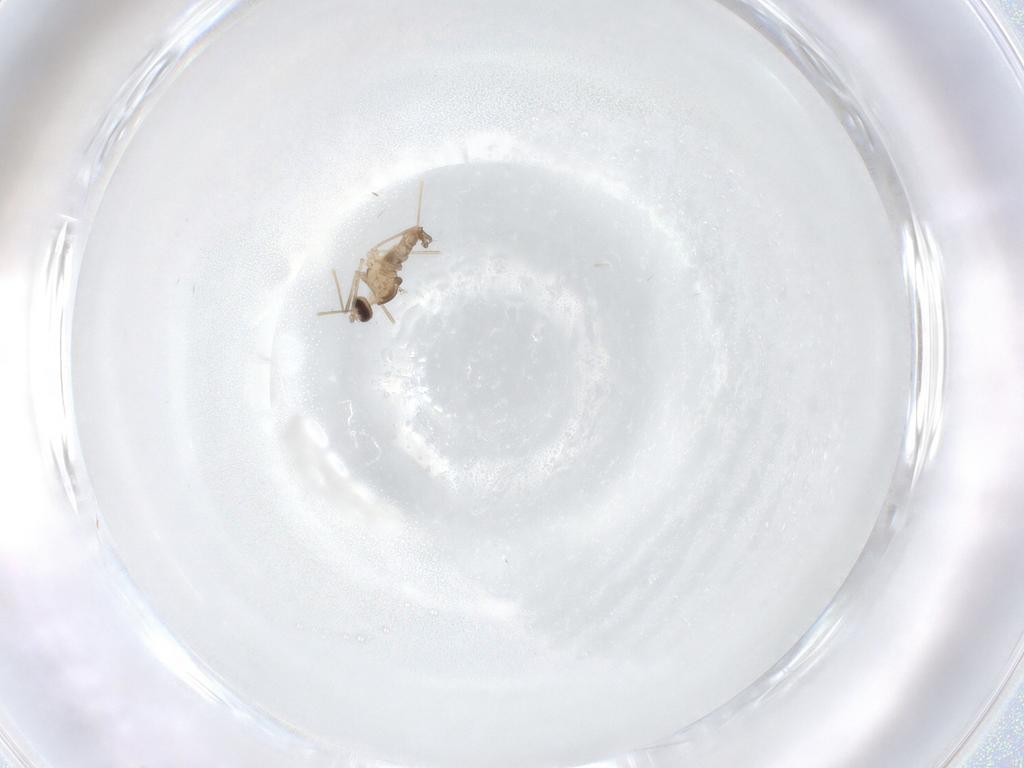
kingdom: Animalia
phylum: Arthropoda
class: Insecta
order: Diptera
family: Cecidomyiidae
